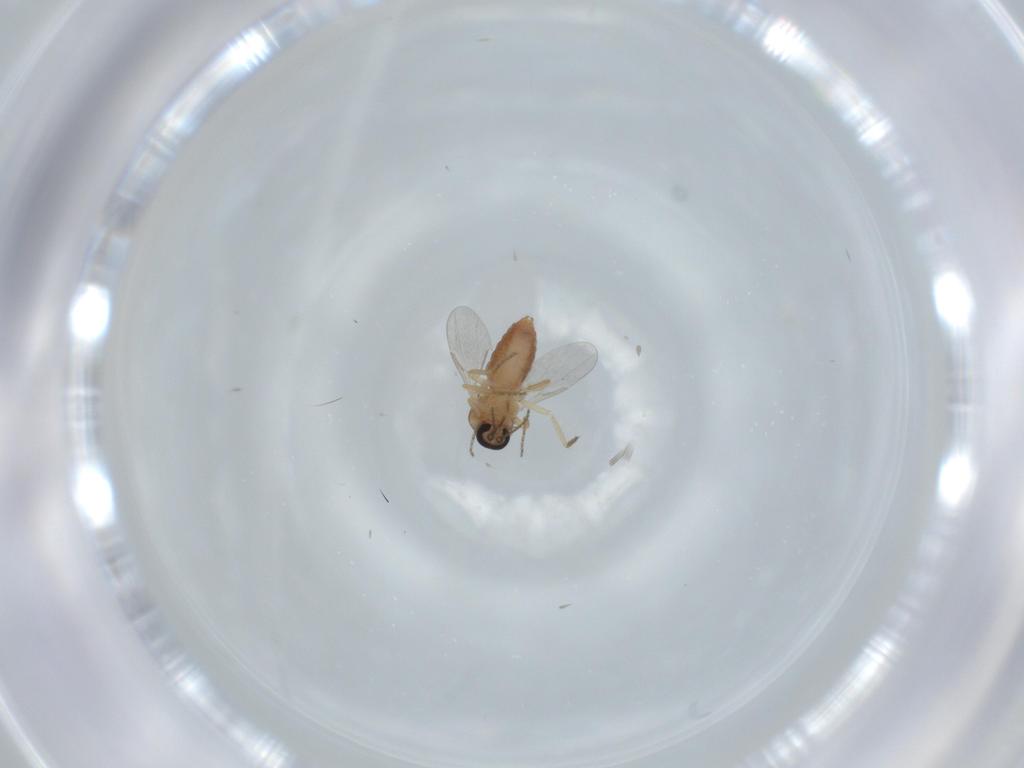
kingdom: Animalia
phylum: Arthropoda
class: Insecta
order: Diptera
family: Ceratopogonidae
